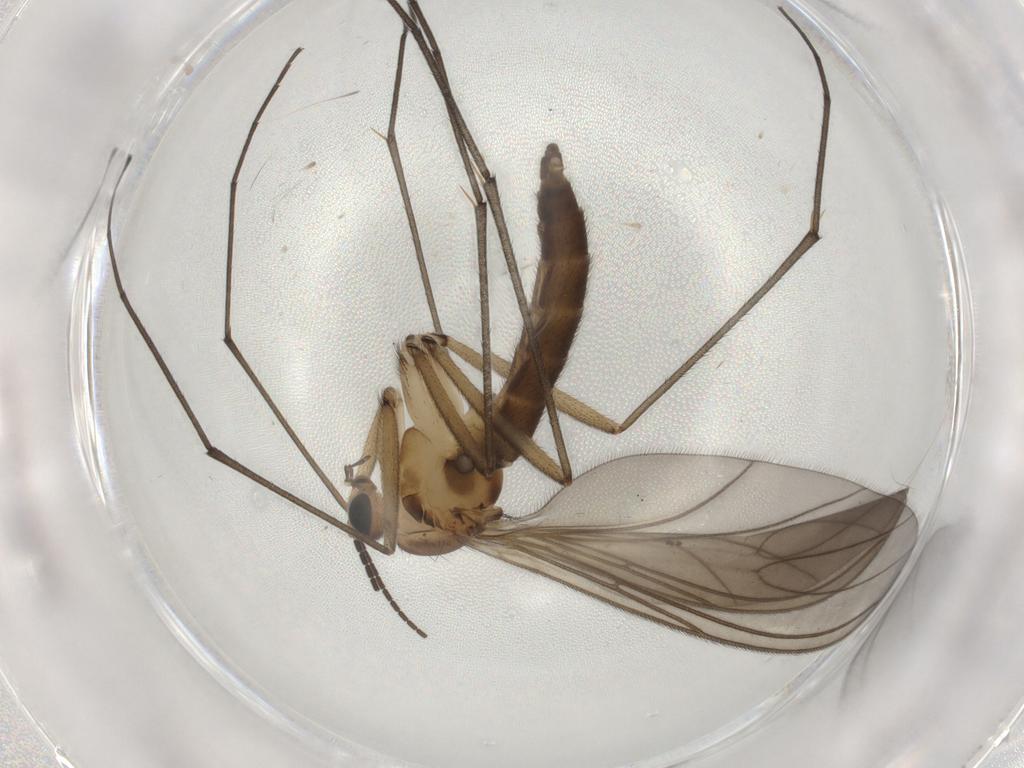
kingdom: Animalia
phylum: Arthropoda
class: Insecta
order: Diptera
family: Sciaridae
